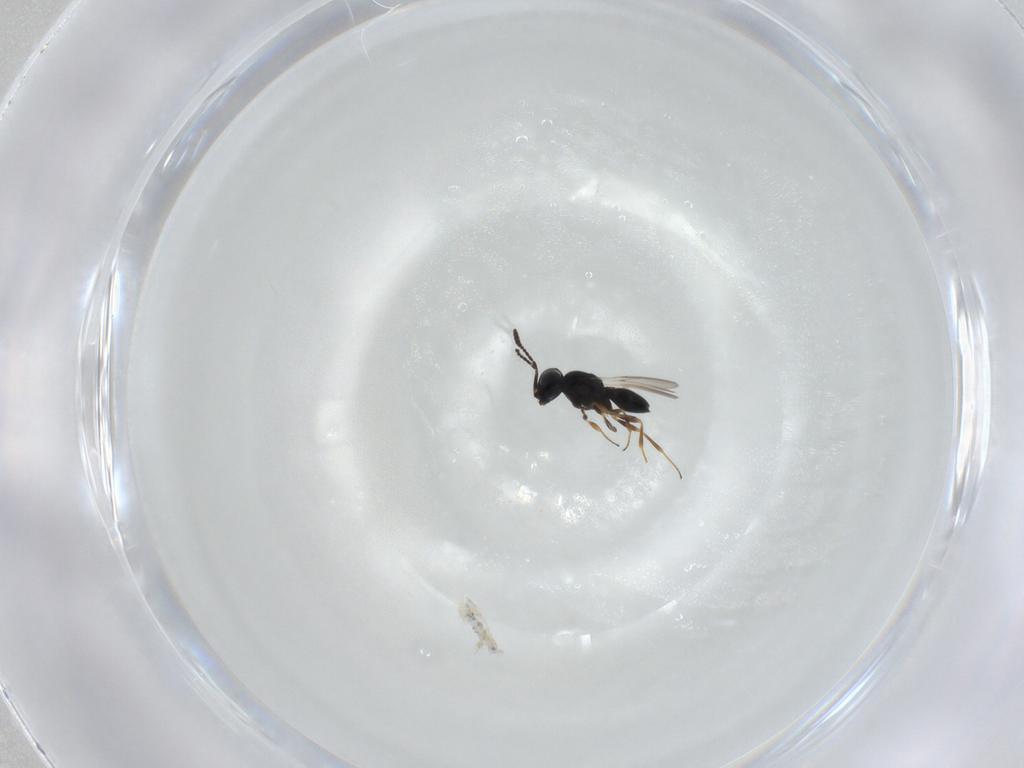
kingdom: Animalia
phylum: Arthropoda
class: Insecta
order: Hymenoptera
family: Scelionidae
